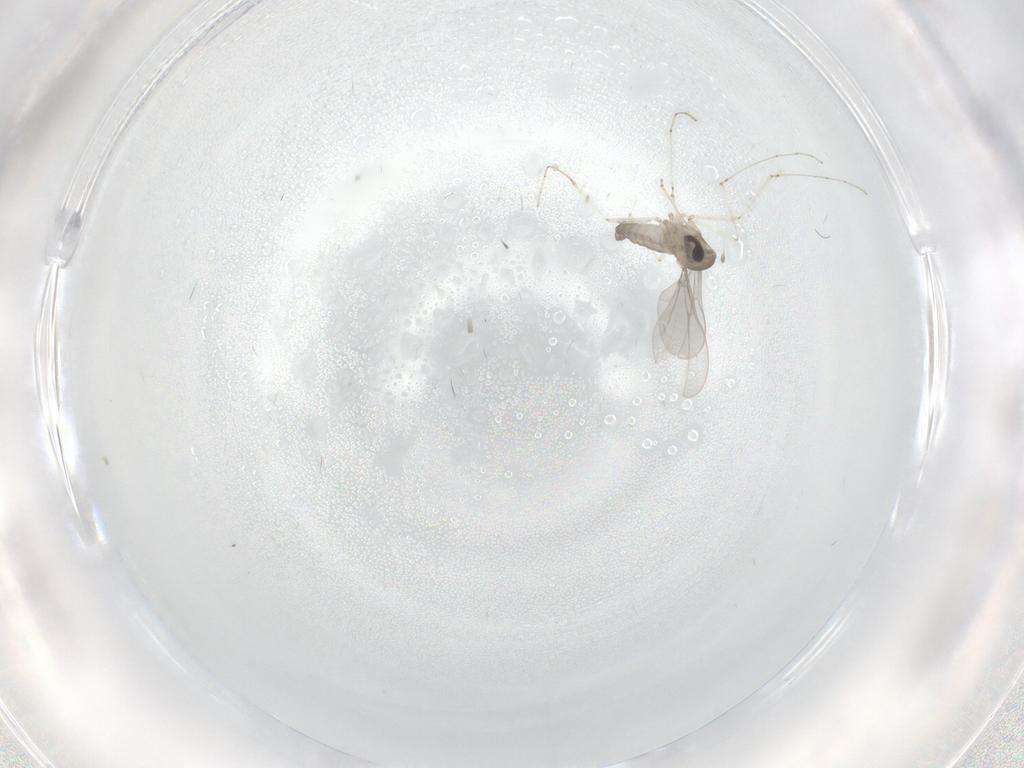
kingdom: Animalia
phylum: Arthropoda
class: Insecta
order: Diptera
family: Cecidomyiidae
